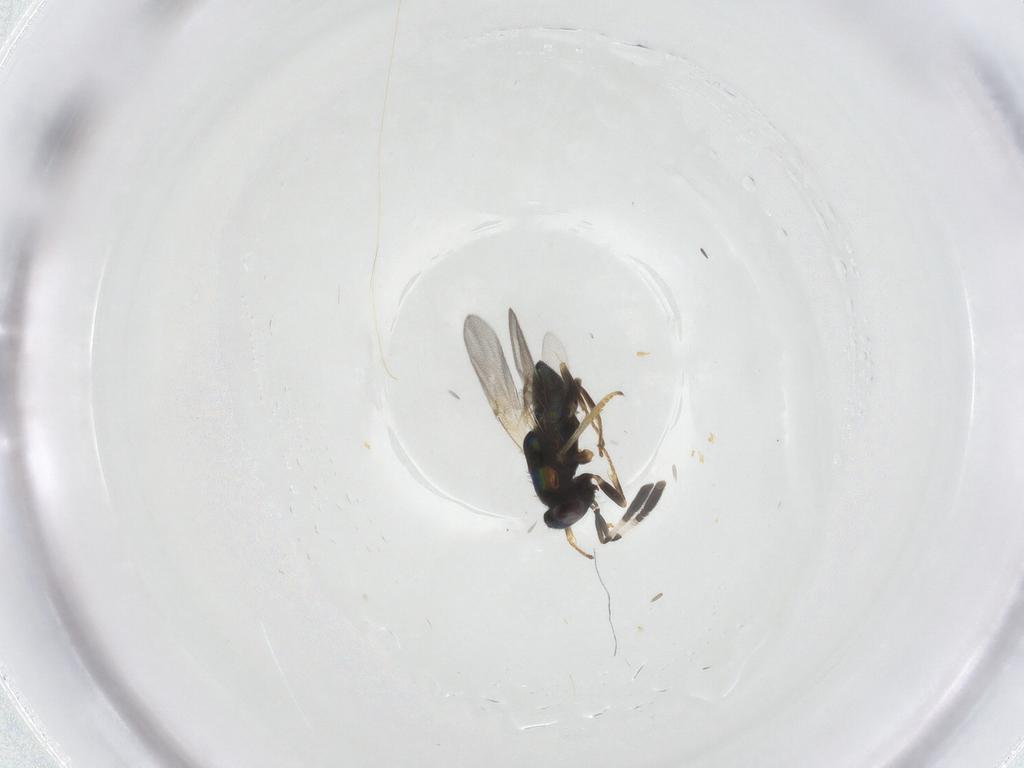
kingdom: Animalia
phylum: Arthropoda
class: Insecta
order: Hymenoptera
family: Encyrtidae
